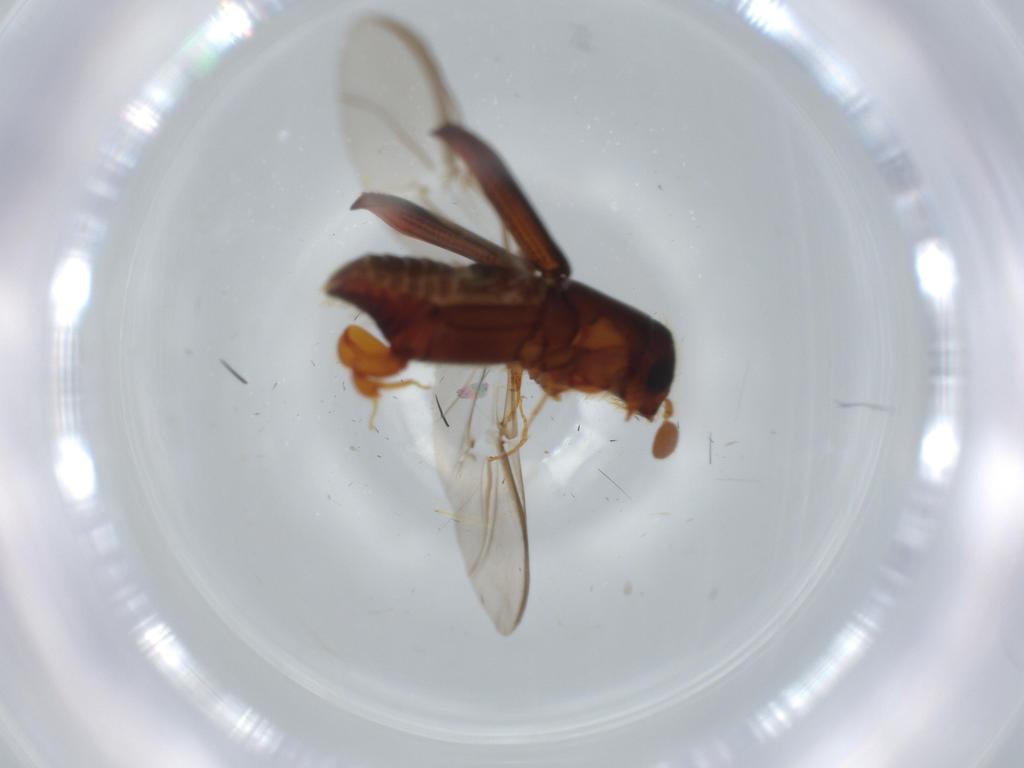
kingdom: Animalia
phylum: Arthropoda
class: Insecta
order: Coleoptera
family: Curculionidae
